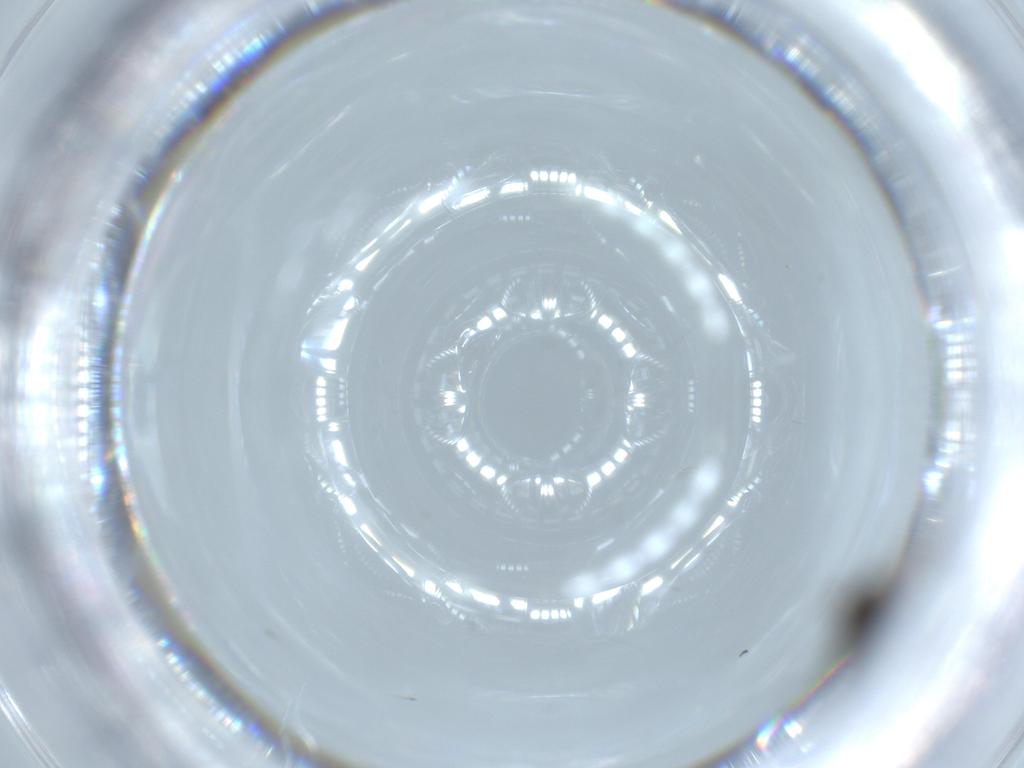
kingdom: Animalia
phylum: Arthropoda
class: Insecta
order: Diptera
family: Sciaridae
